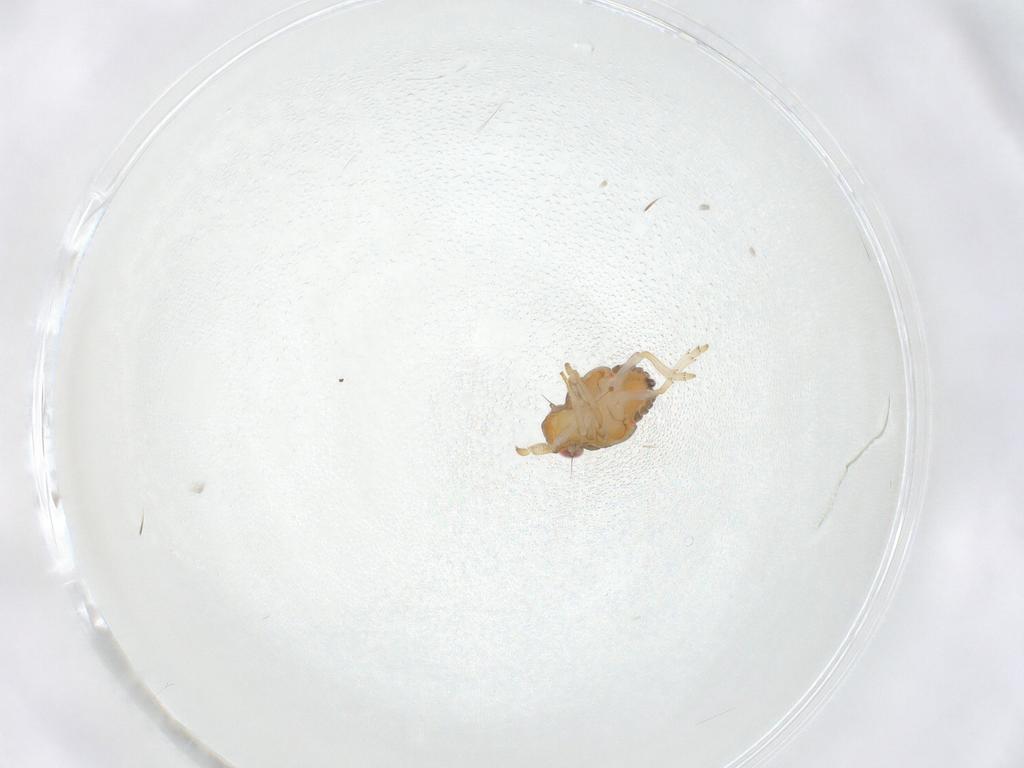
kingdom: Animalia
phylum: Arthropoda
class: Insecta
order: Hemiptera
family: Issidae
